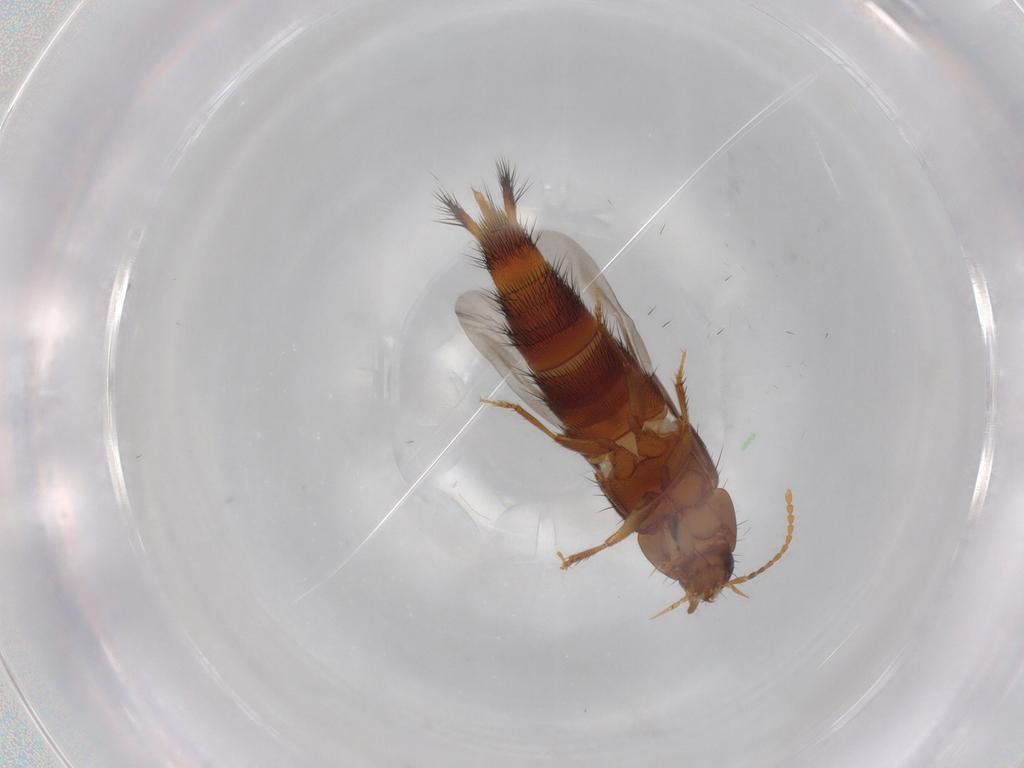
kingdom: Animalia
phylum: Arthropoda
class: Insecta
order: Coleoptera
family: Staphylinidae
